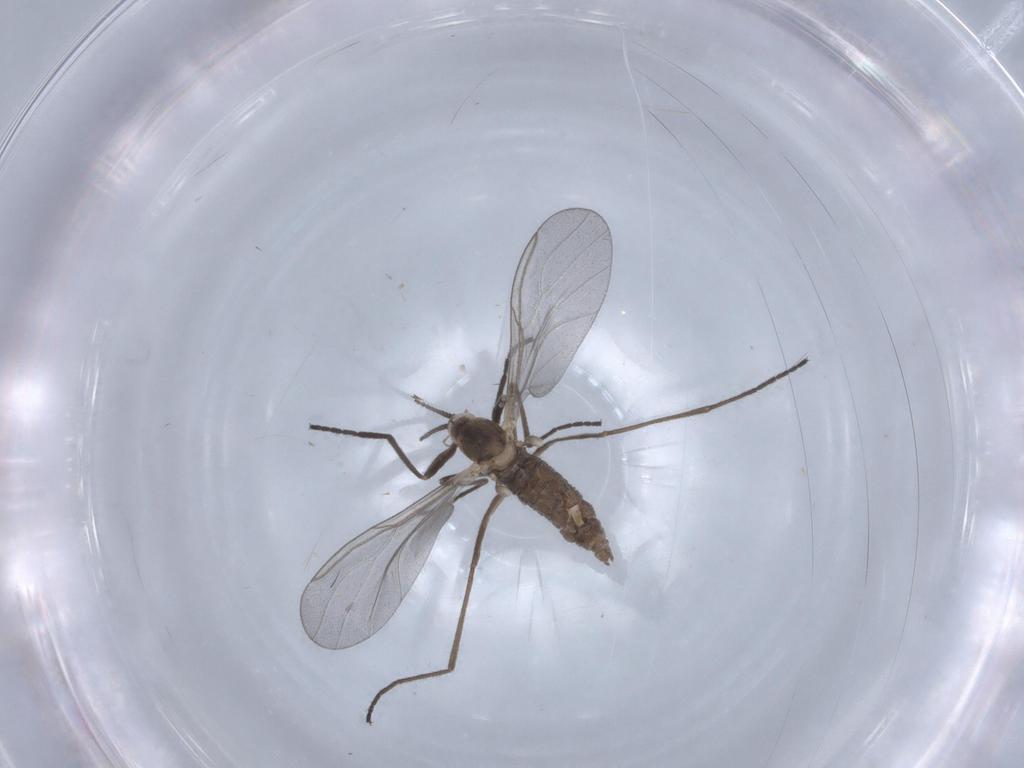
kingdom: Animalia
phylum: Arthropoda
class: Insecta
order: Diptera
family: Cecidomyiidae
